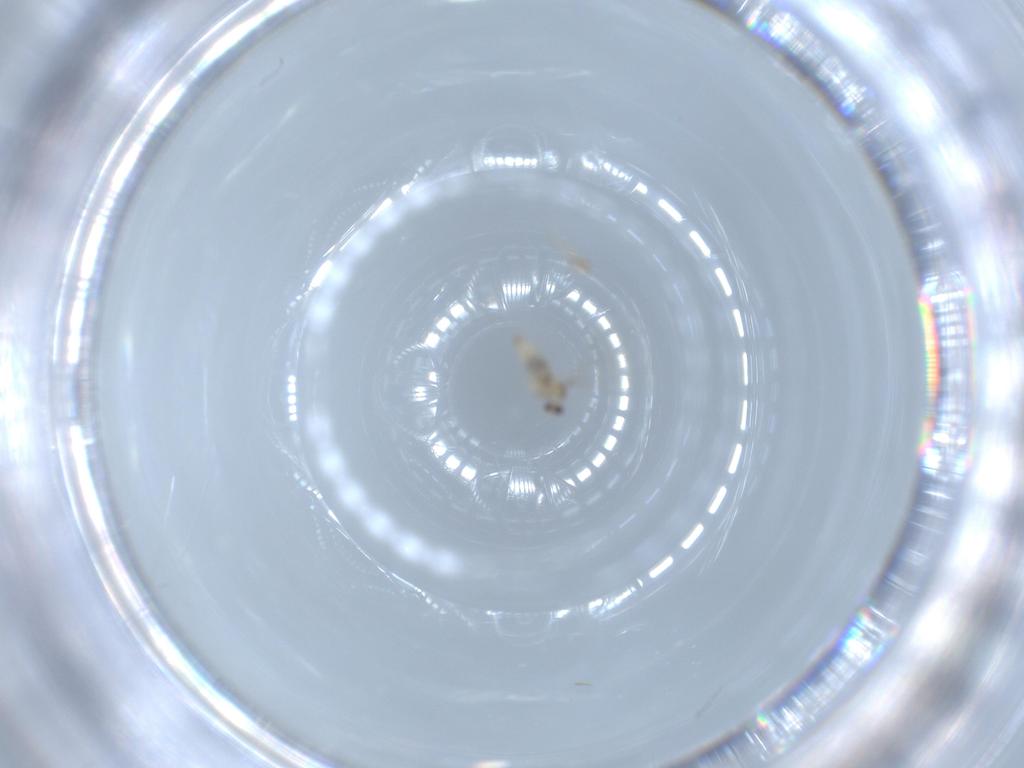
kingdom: Animalia
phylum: Arthropoda
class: Insecta
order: Diptera
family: Cecidomyiidae
